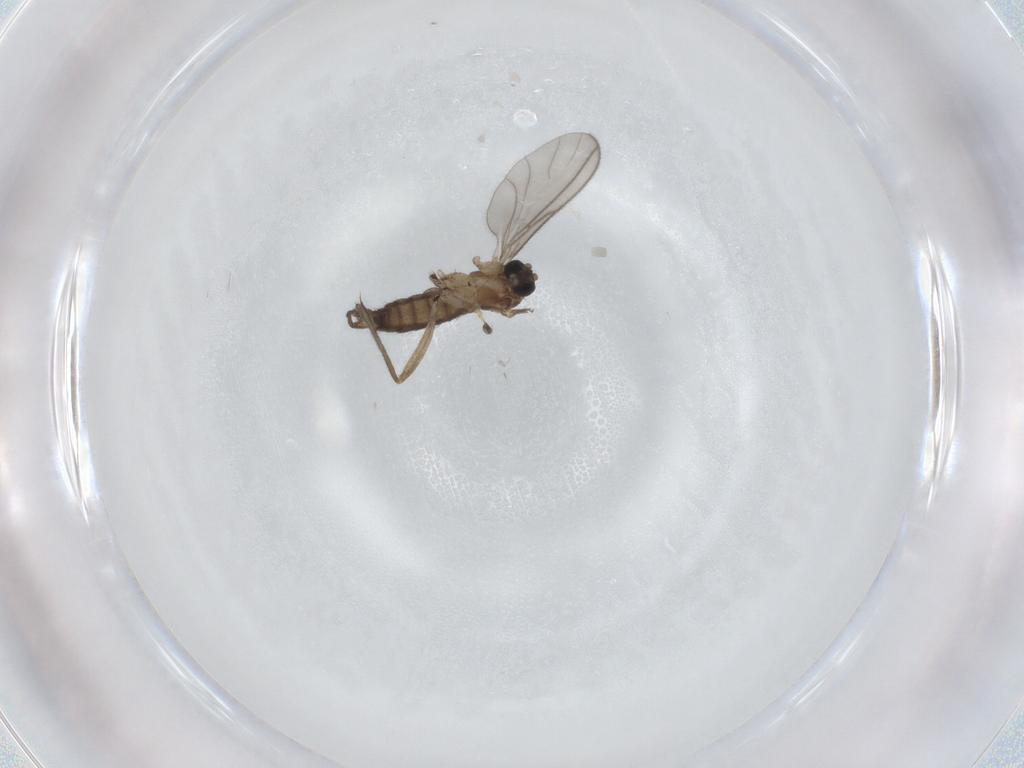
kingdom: Animalia
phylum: Arthropoda
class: Insecta
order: Diptera
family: Sciaridae
